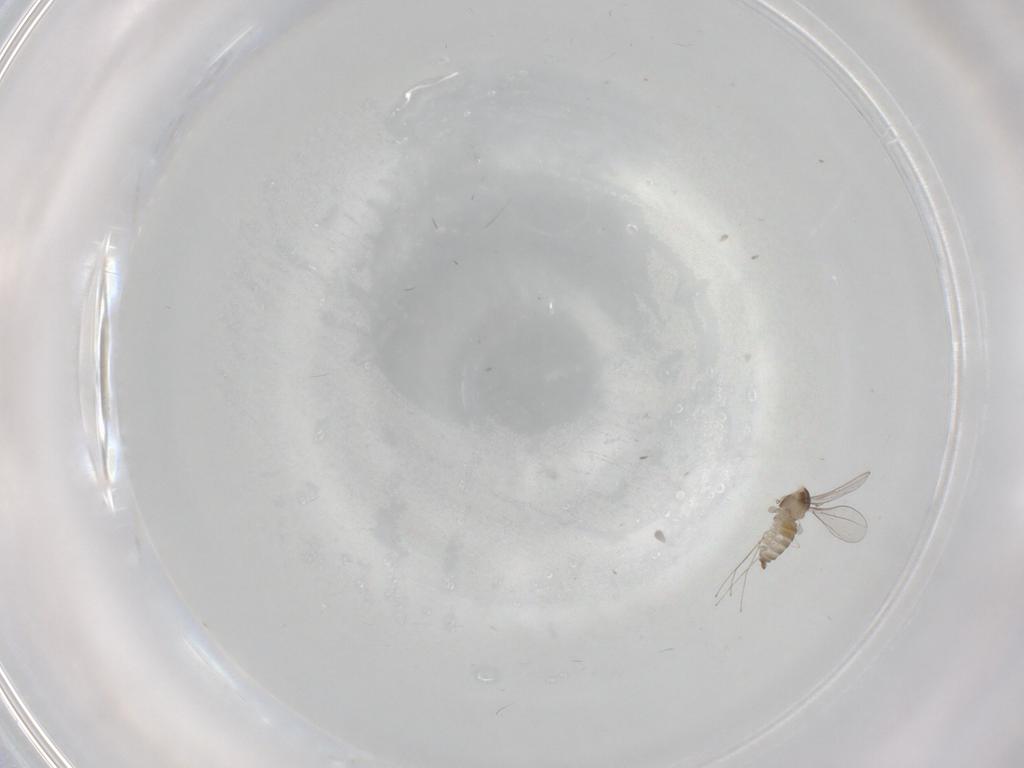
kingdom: Animalia
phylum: Arthropoda
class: Insecta
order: Diptera
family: Cecidomyiidae
